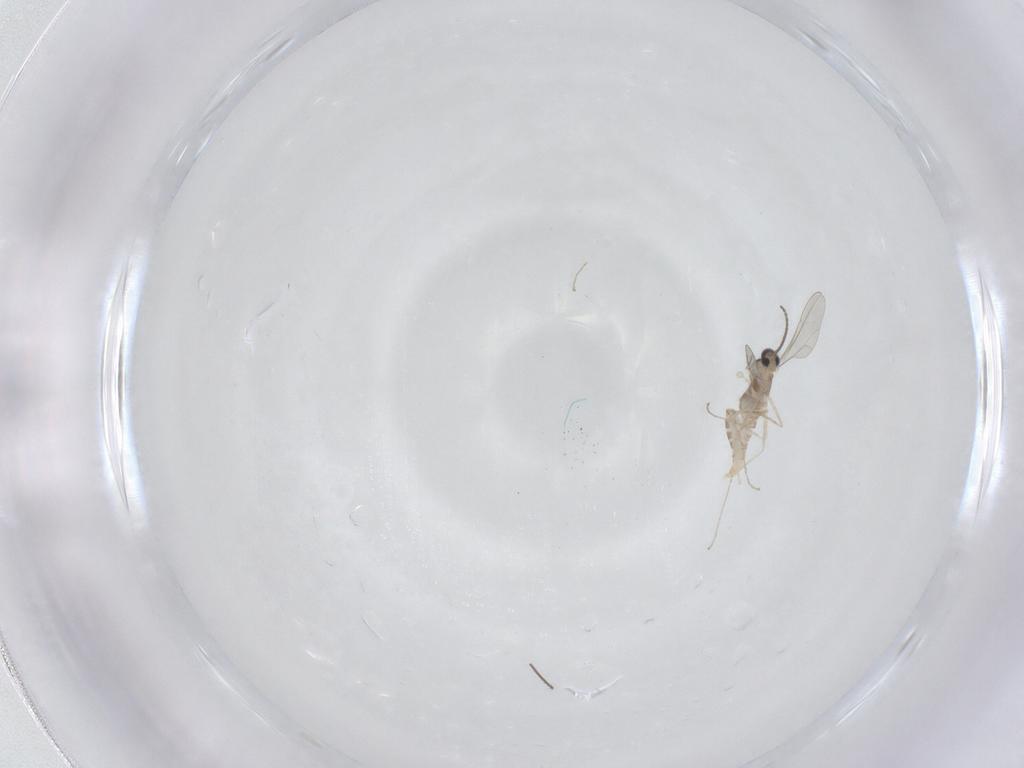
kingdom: Animalia
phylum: Arthropoda
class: Insecta
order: Diptera
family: Cecidomyiidae
